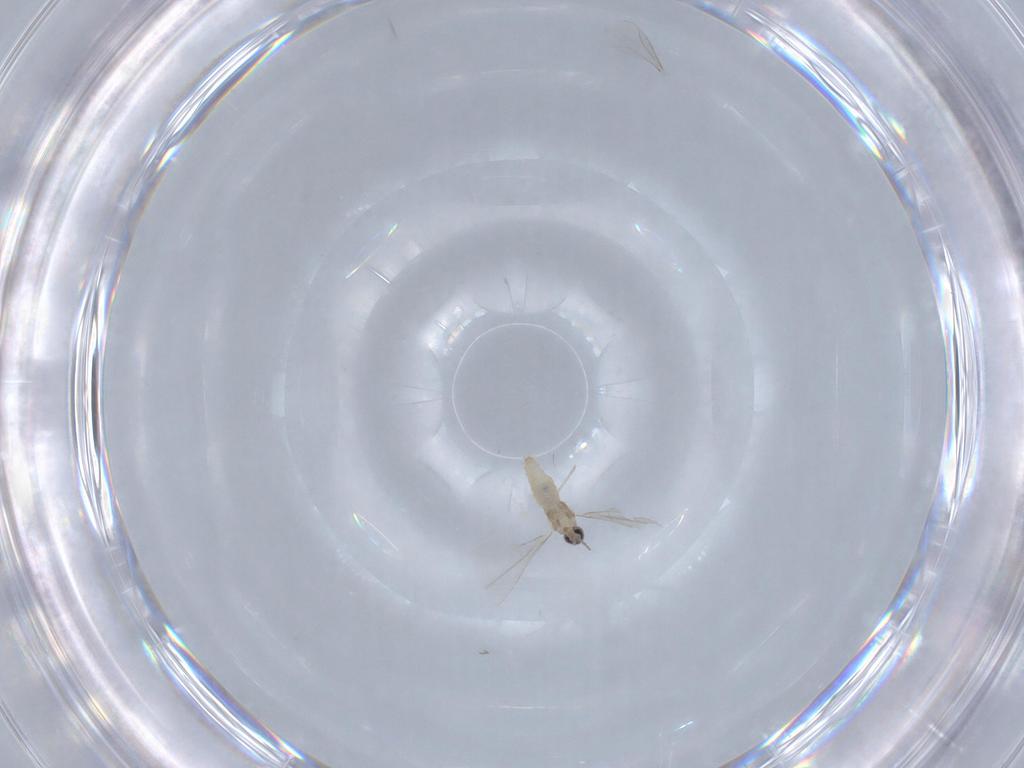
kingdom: Animalia
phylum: Arthropoda
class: Insecta
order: Diptera
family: Cecidomyiidae
